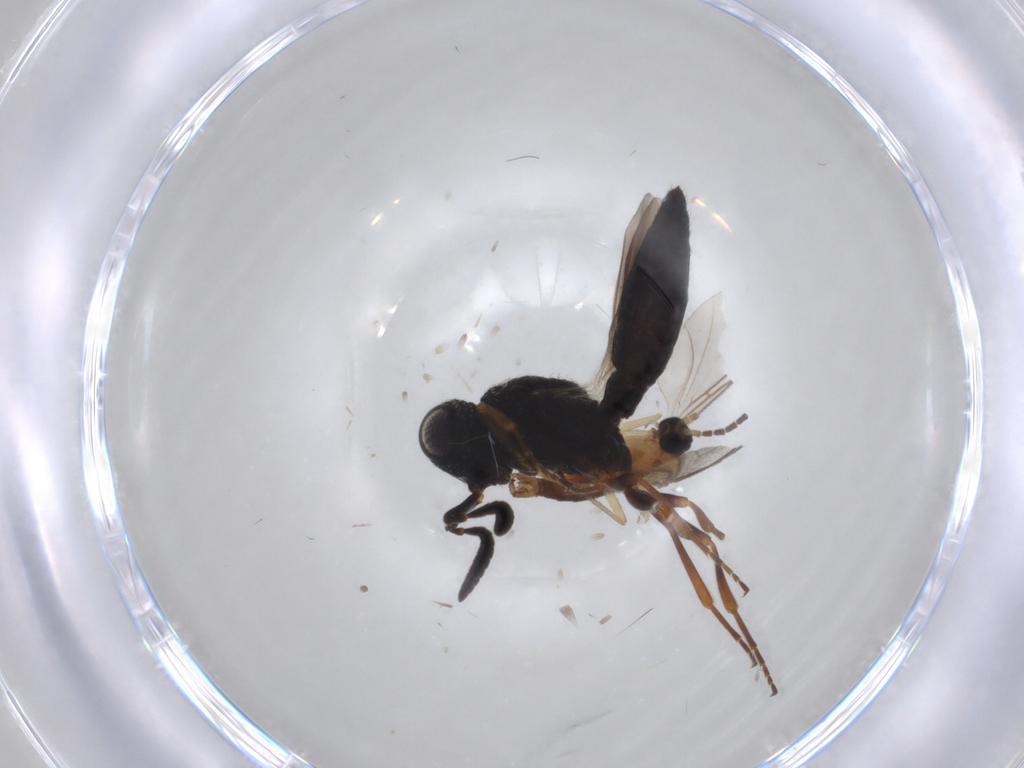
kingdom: Animalia
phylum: Arthropoda
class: Insecta
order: Diptera
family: Sciaridae
